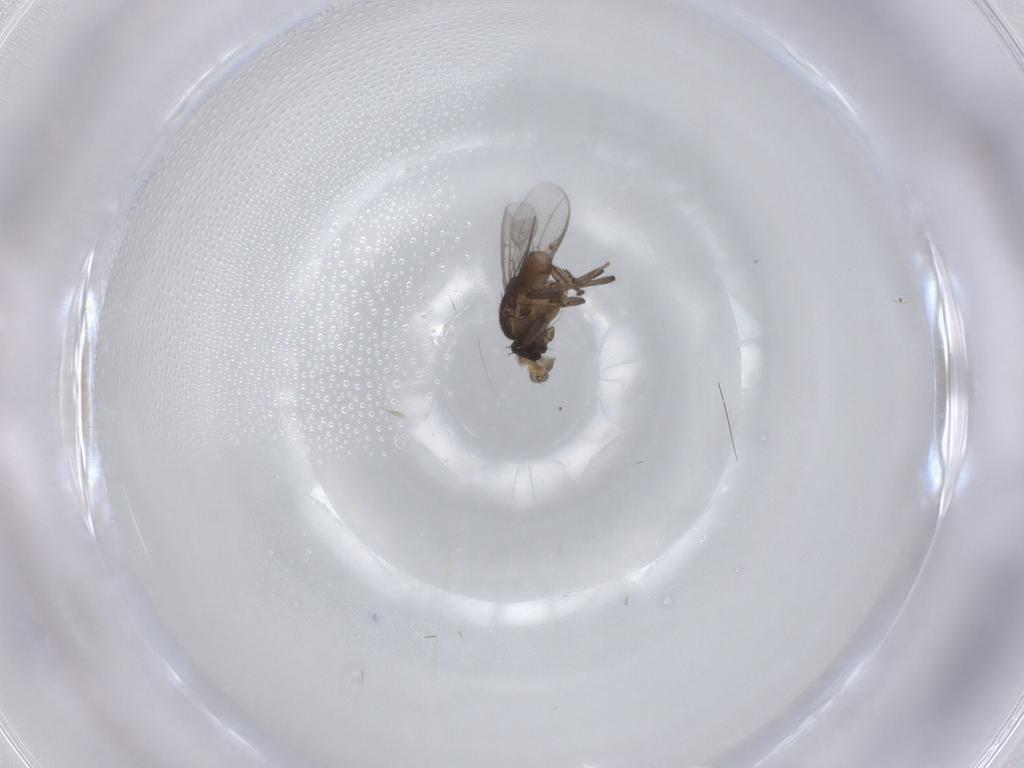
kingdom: Animalia
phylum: Arthropoda
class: Insecta
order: Diptera
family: Sphaeroceridae
